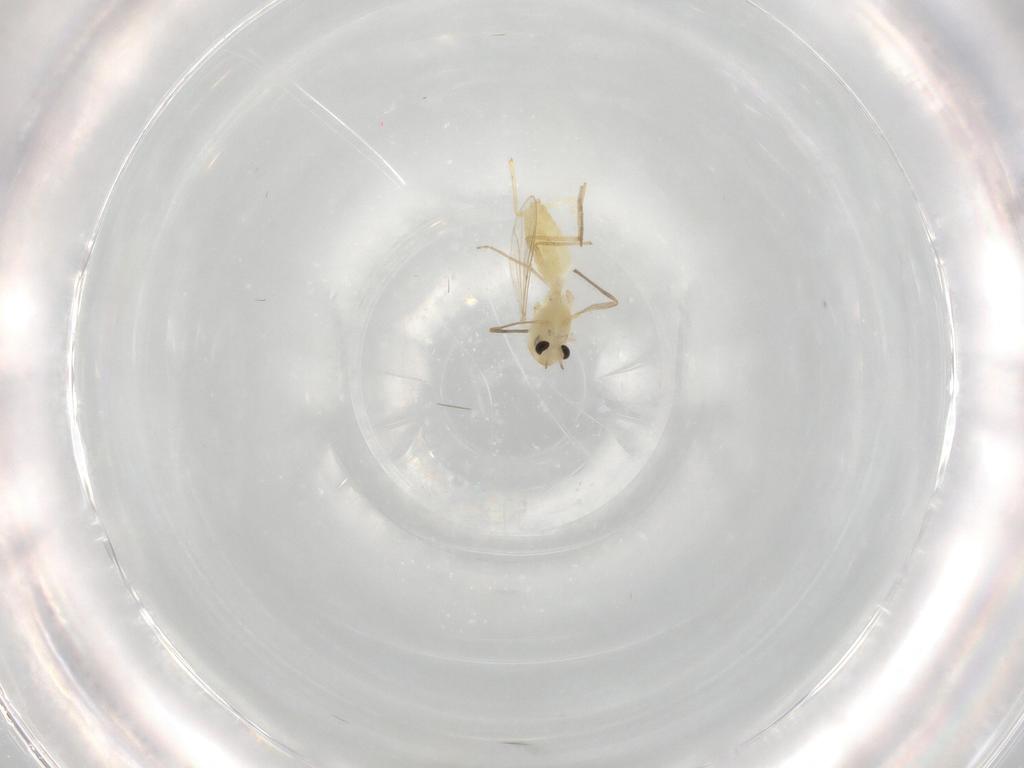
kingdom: Animalia
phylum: Arthropoda
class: Insecta
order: Diptera
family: Chironomidae
